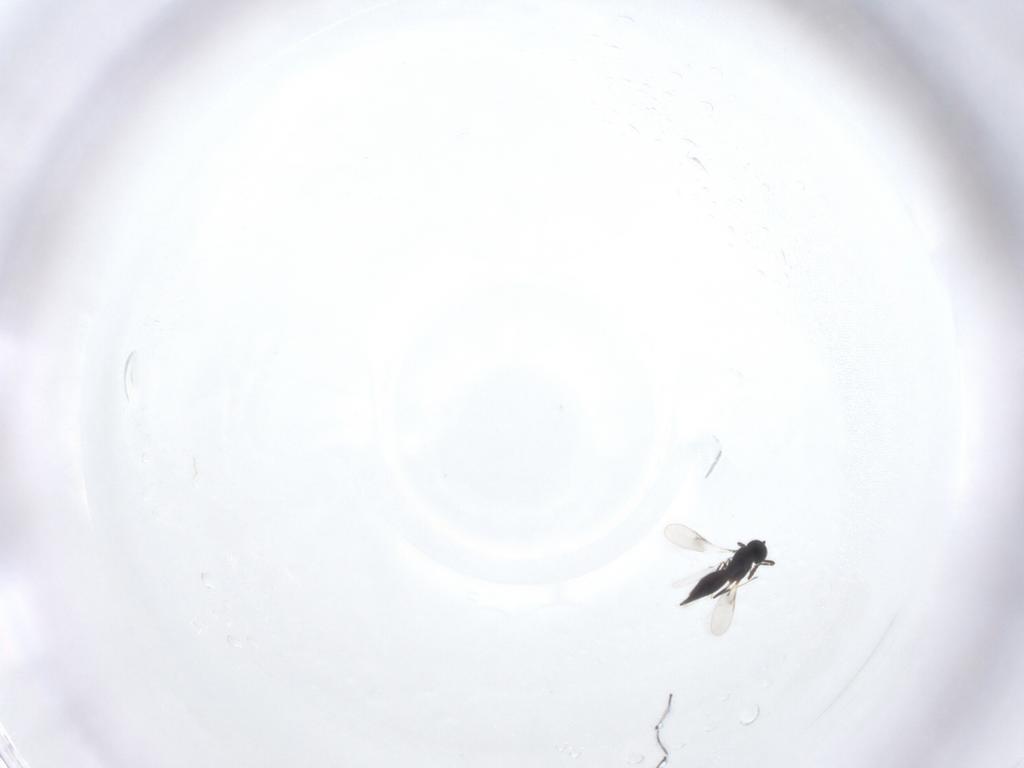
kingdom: Animalia
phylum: Arthropoda
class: Insecta
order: Hymenoptera
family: Scelionidae
